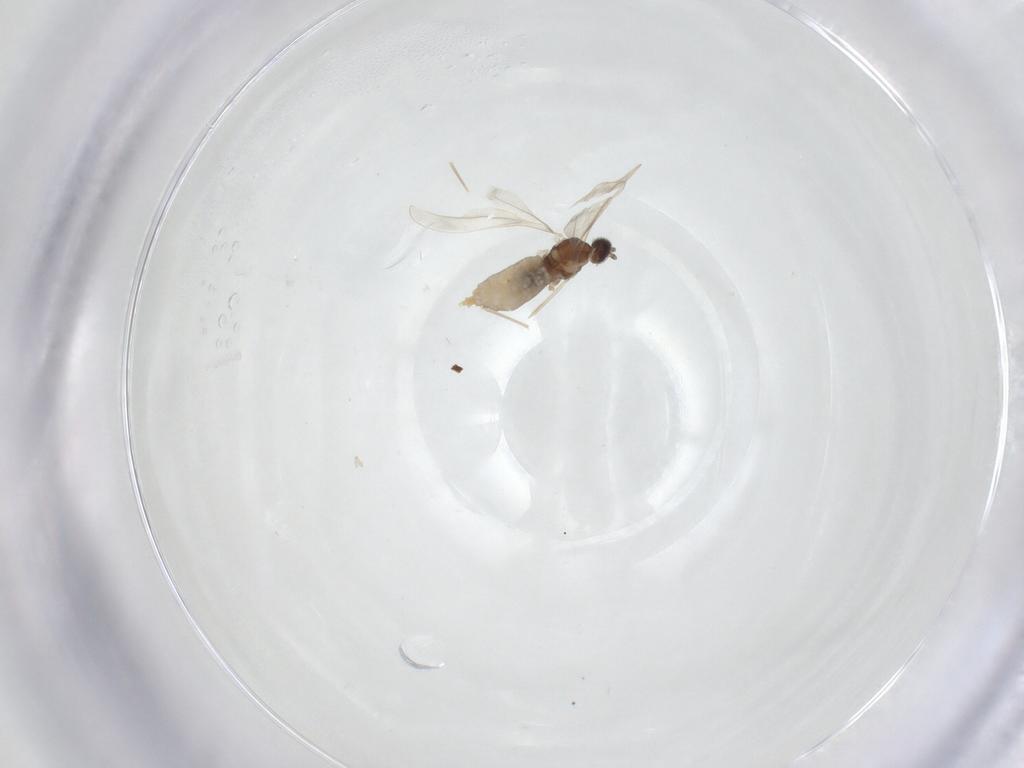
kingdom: Animalia
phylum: Arthropoda
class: Insecta
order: Diptera
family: Cecidomyiidae
